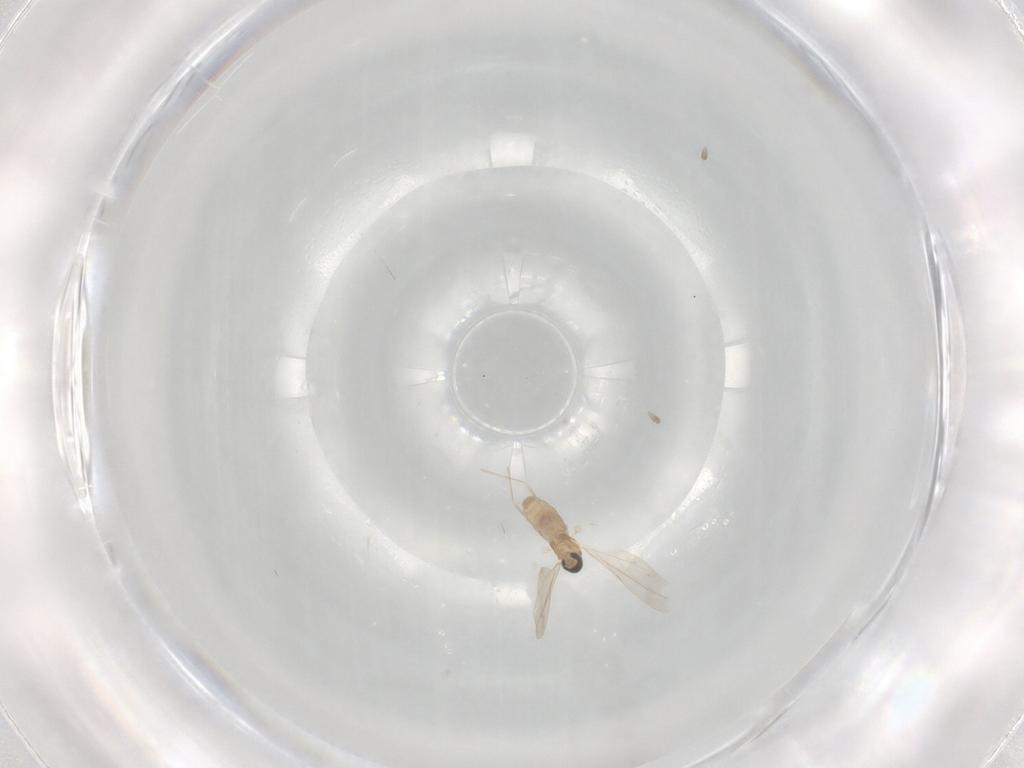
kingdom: Animalia
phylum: Arthropoda
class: Insecta
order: Diptera
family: Cecidomyiidae
